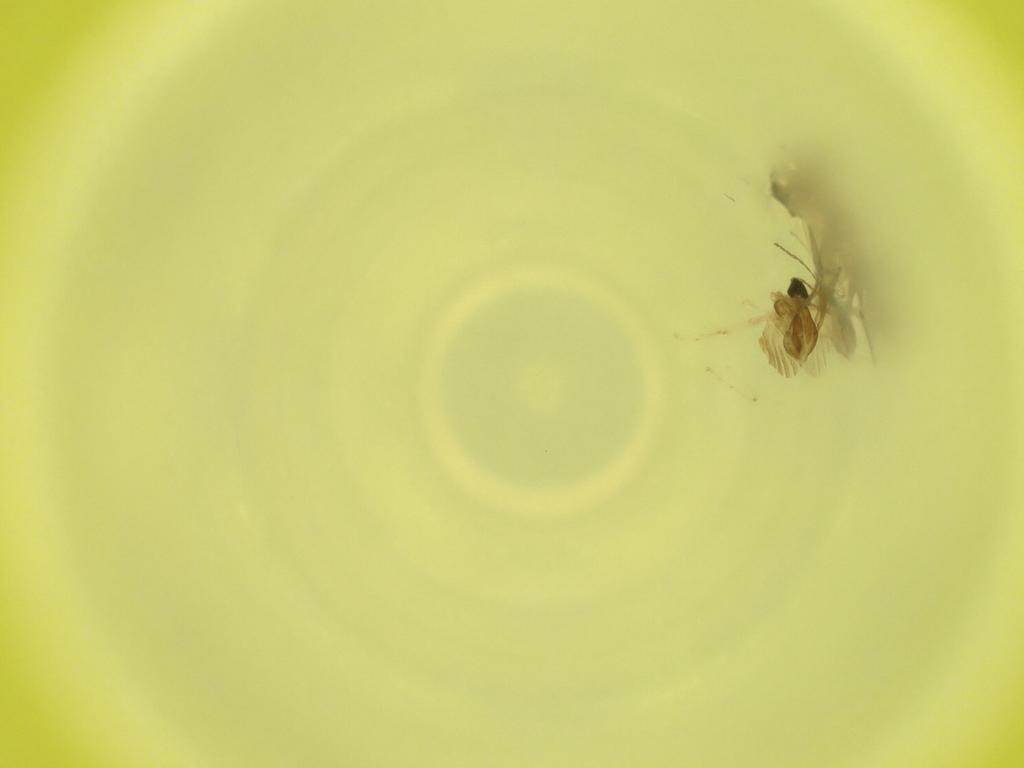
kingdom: Animalia
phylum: Arthropoda
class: Insecta
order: Diptera
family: Cecidomyiidae
